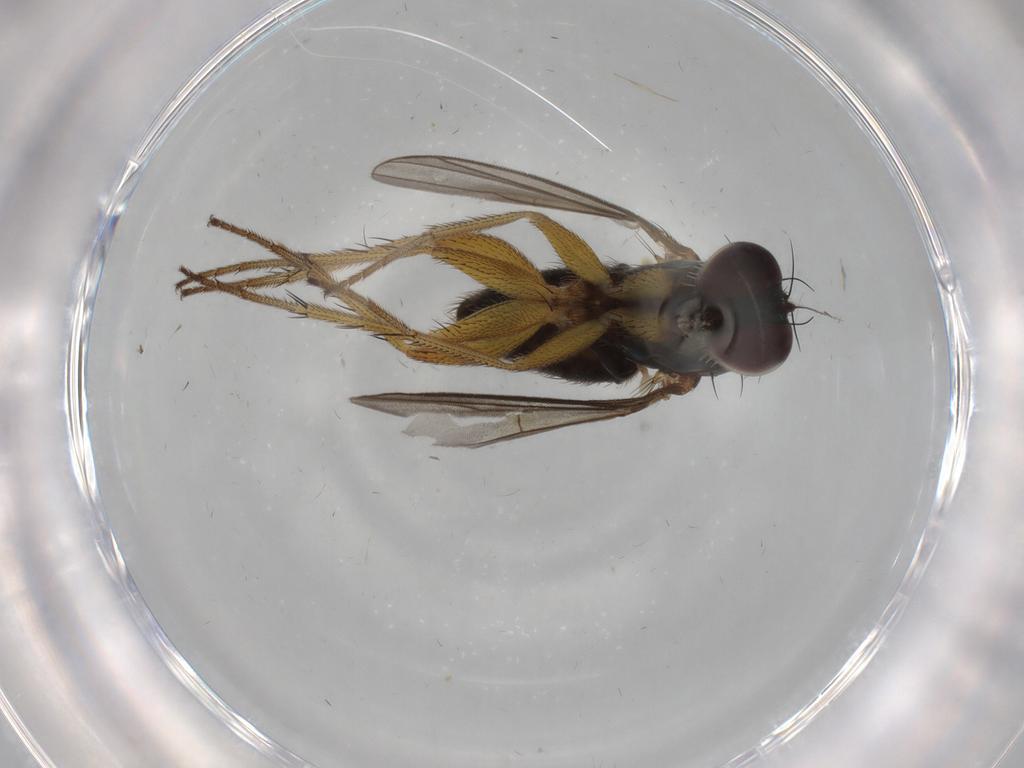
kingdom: Animalia
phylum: Arthropoda
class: Insecta
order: Diptera
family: Dolichopodidae
